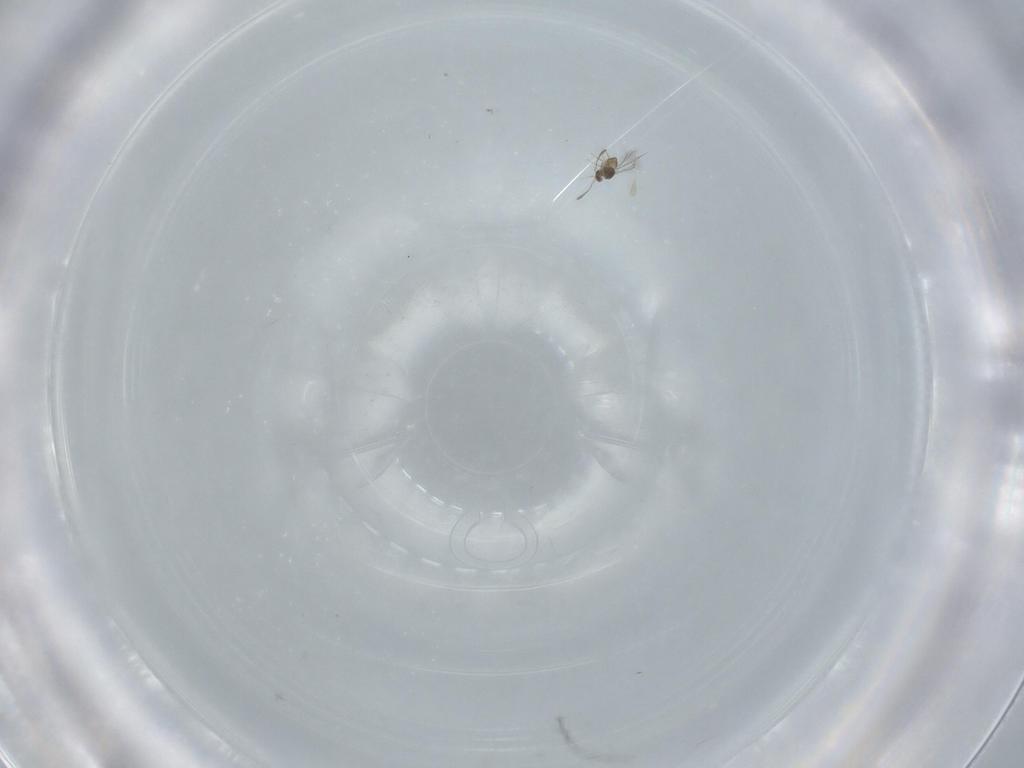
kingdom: Animalia
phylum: Arthropoda
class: Insecta
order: Hymenoptera
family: Mymaridae
